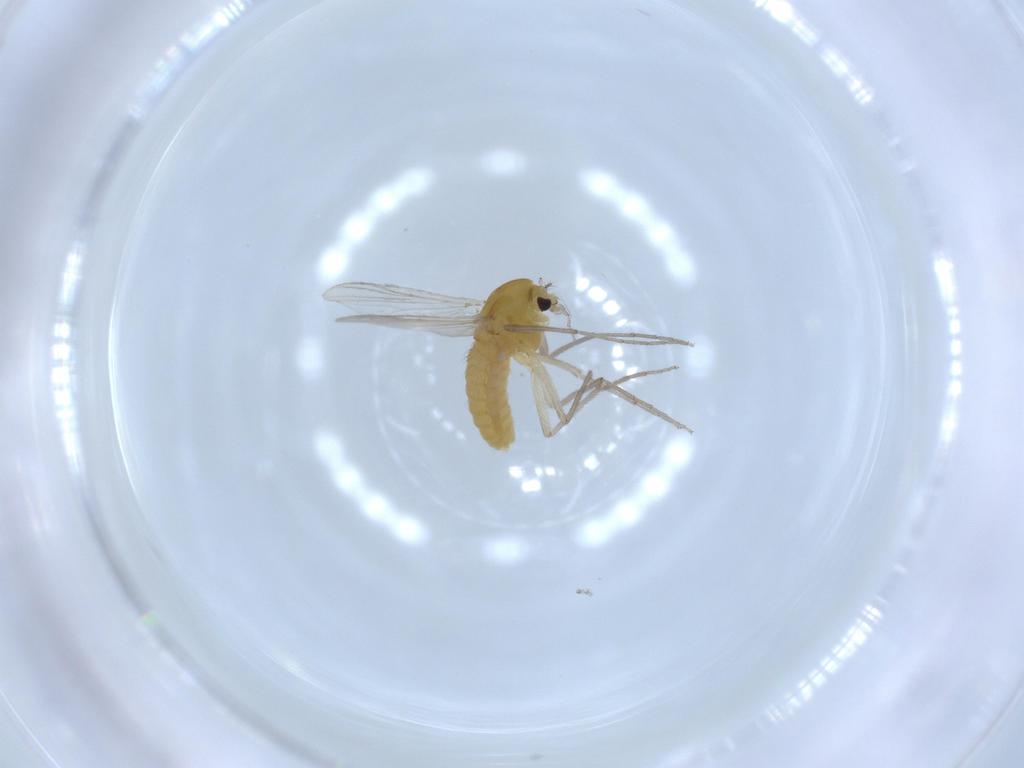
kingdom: Animalia
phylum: Arthropoda
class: Insecta
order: Diptera
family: Chironomidae
